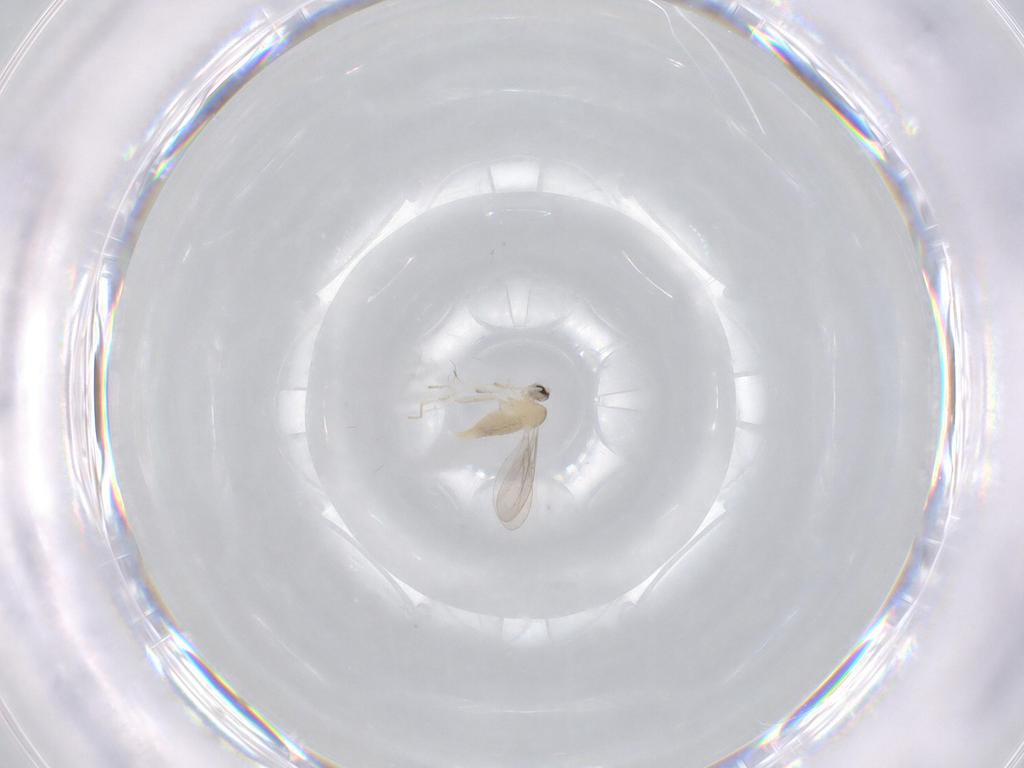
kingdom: Animalia
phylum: Arthropoda
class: Insecta
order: Diptera
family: Cecidomyiidae
